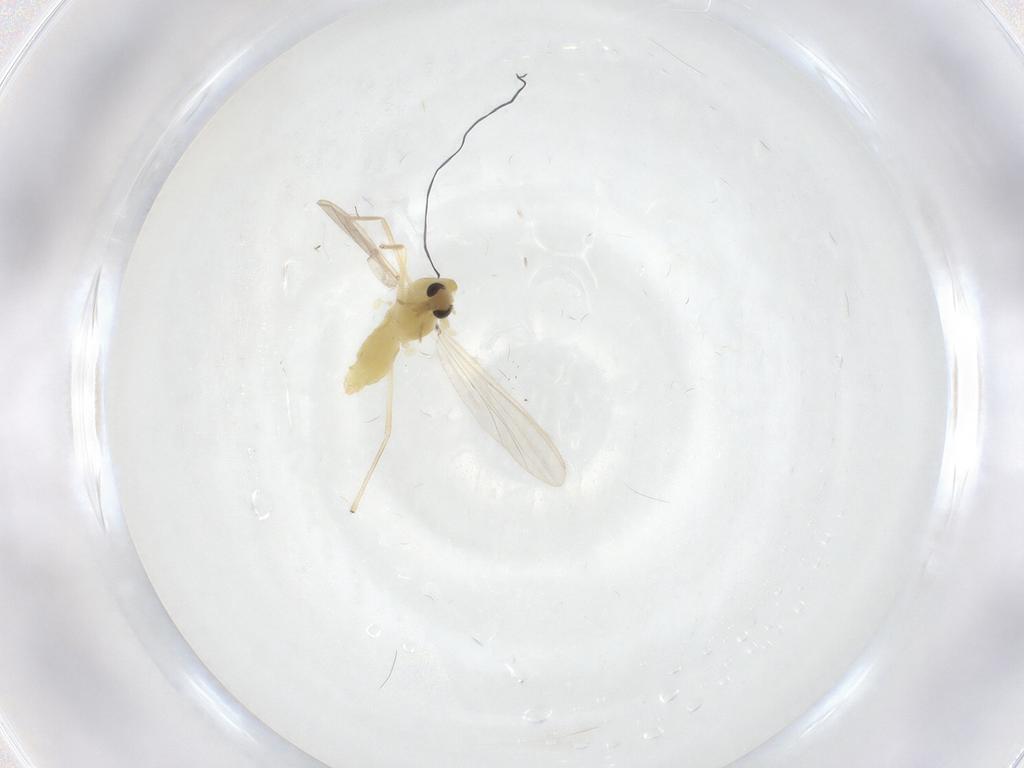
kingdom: Animalia
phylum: Arthropoda
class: Insecta
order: Diptera
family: Chironomidae
